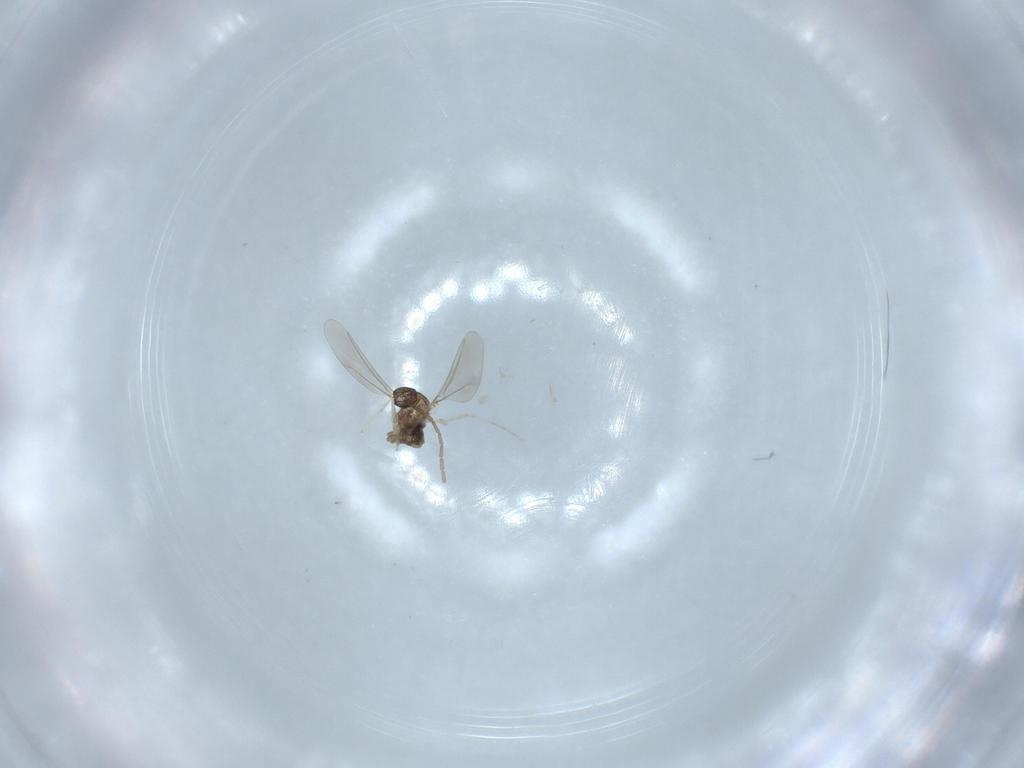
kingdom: Animalia
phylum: Arthropoda
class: Insecta
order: Diptera
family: Cecidomyiidae
